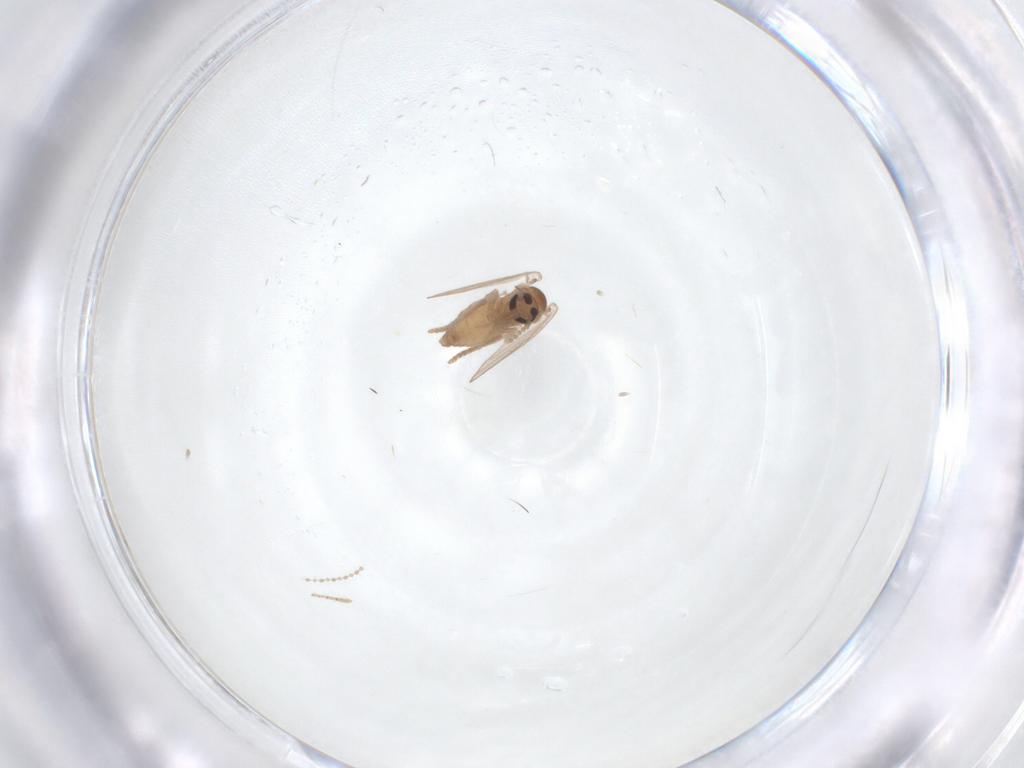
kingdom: Animalia
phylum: Arthropoda
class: Insecta
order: Diptera
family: Psychodidae
